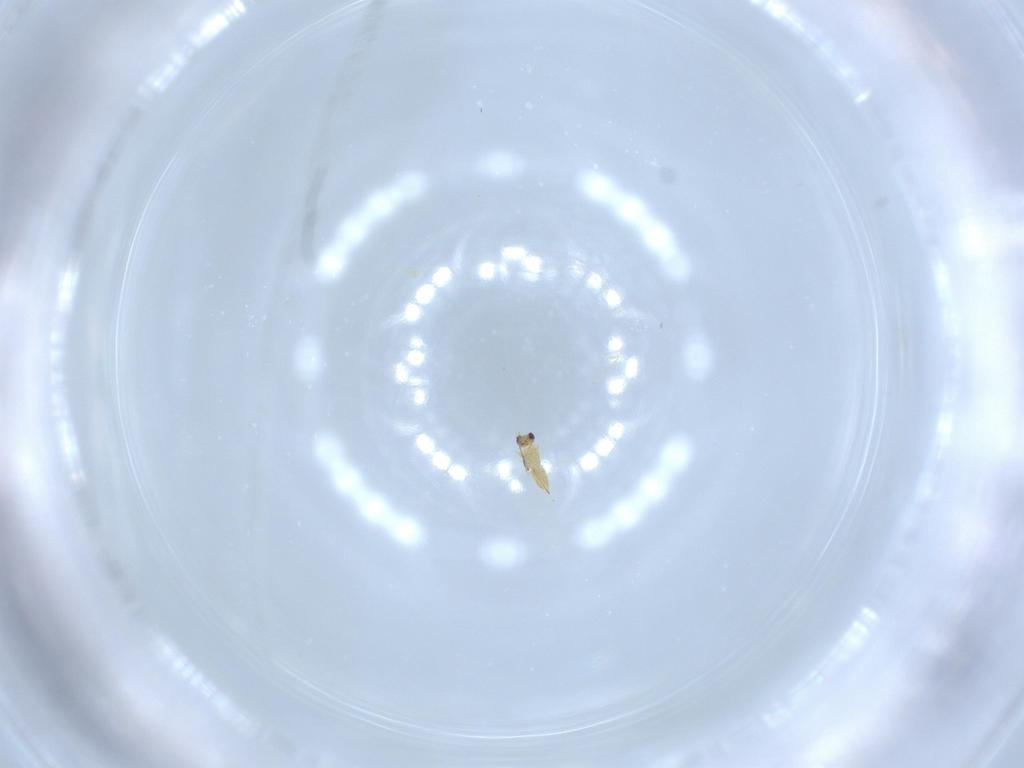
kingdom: Animalia
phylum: Arthropoda
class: Insecta
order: Hymenoptera
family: Mymaridae
